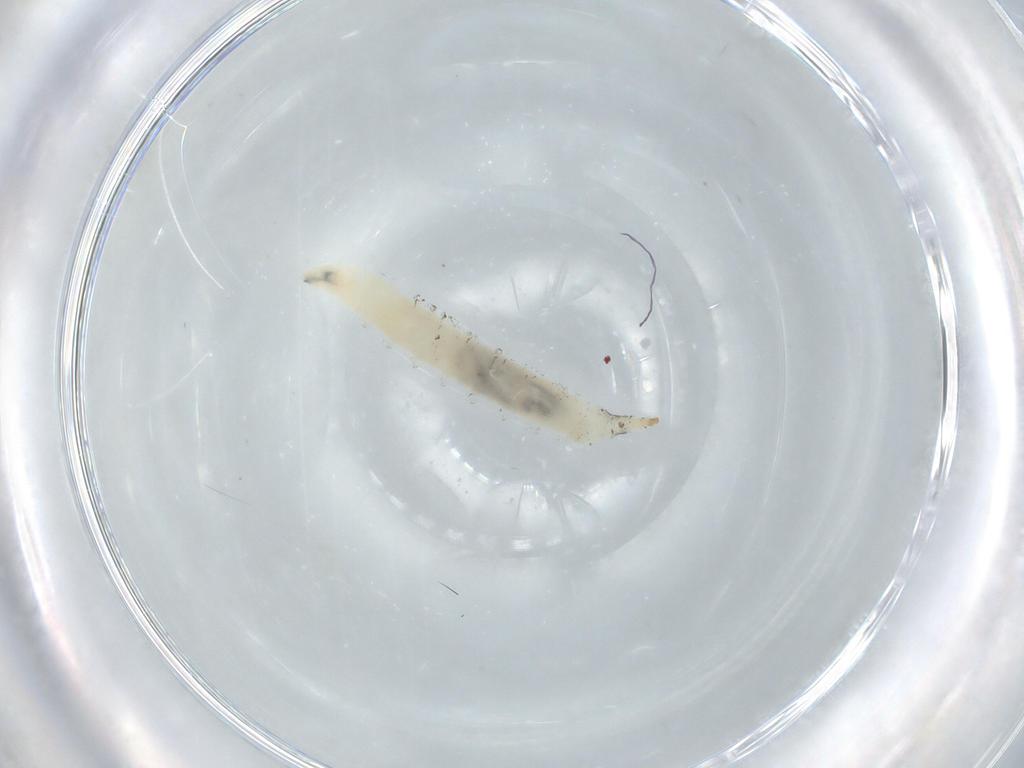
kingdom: Animalia
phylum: Arthropoda
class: Insecta
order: Diptera
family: Drosophilidae
